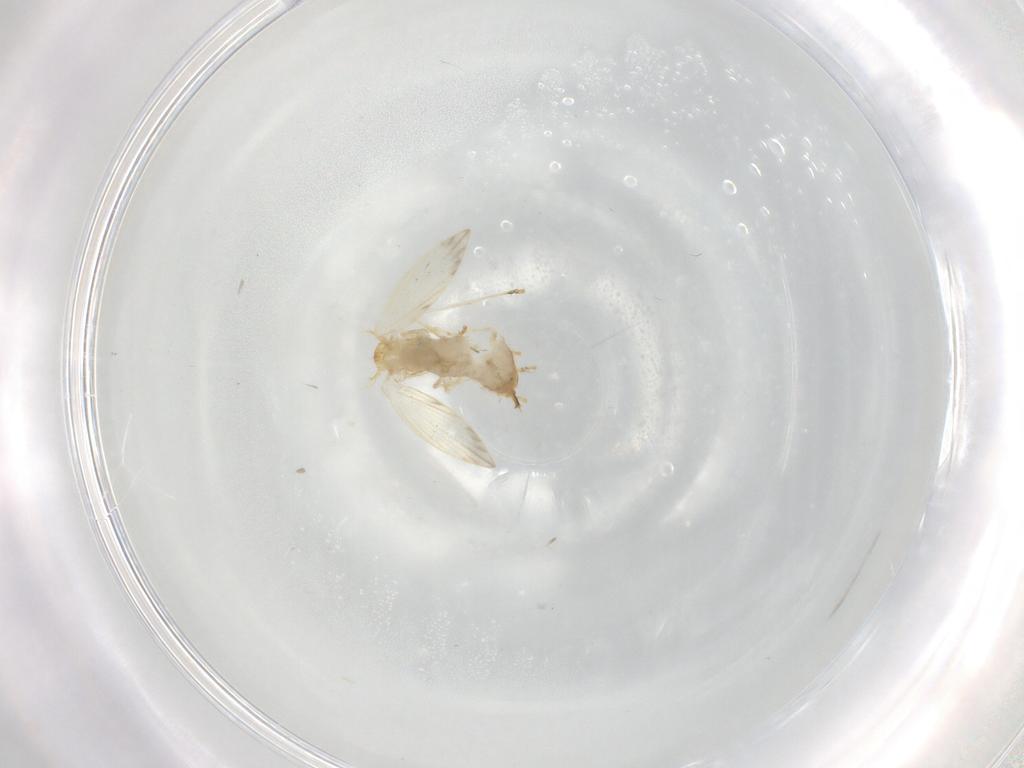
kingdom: Animalia
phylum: Arthropoda
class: Insecta
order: Diptera
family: Psychodidae
